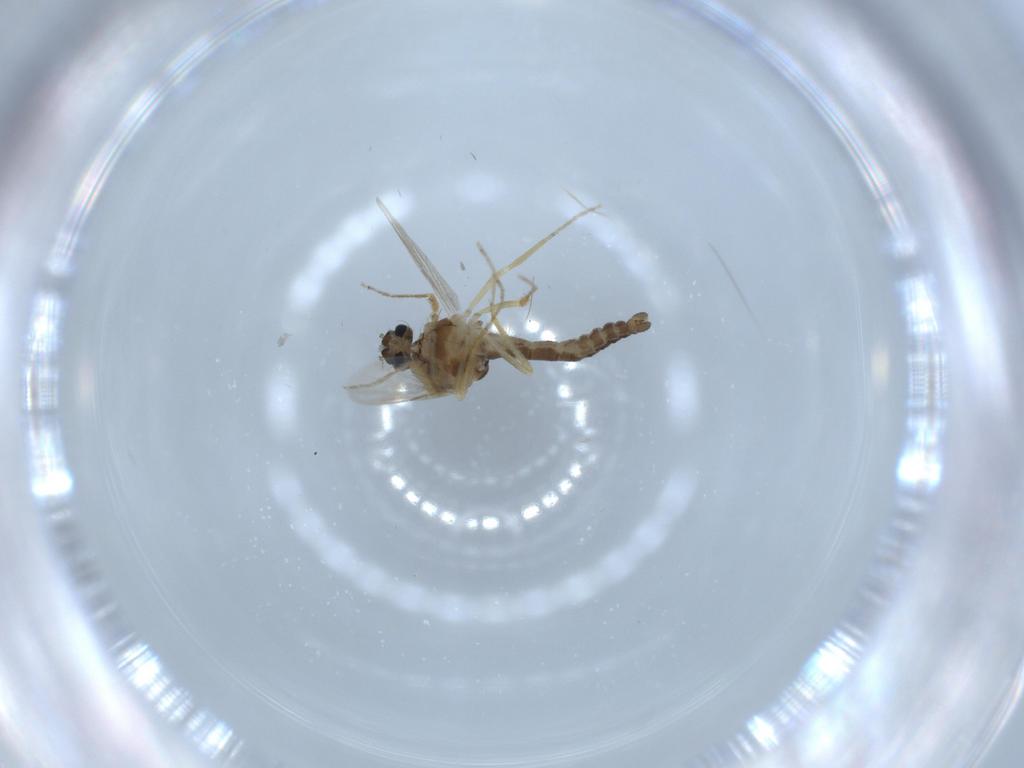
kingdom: Animalia
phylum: Arthropoda
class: Insecta
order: Diptera
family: Ceratopogonidae
